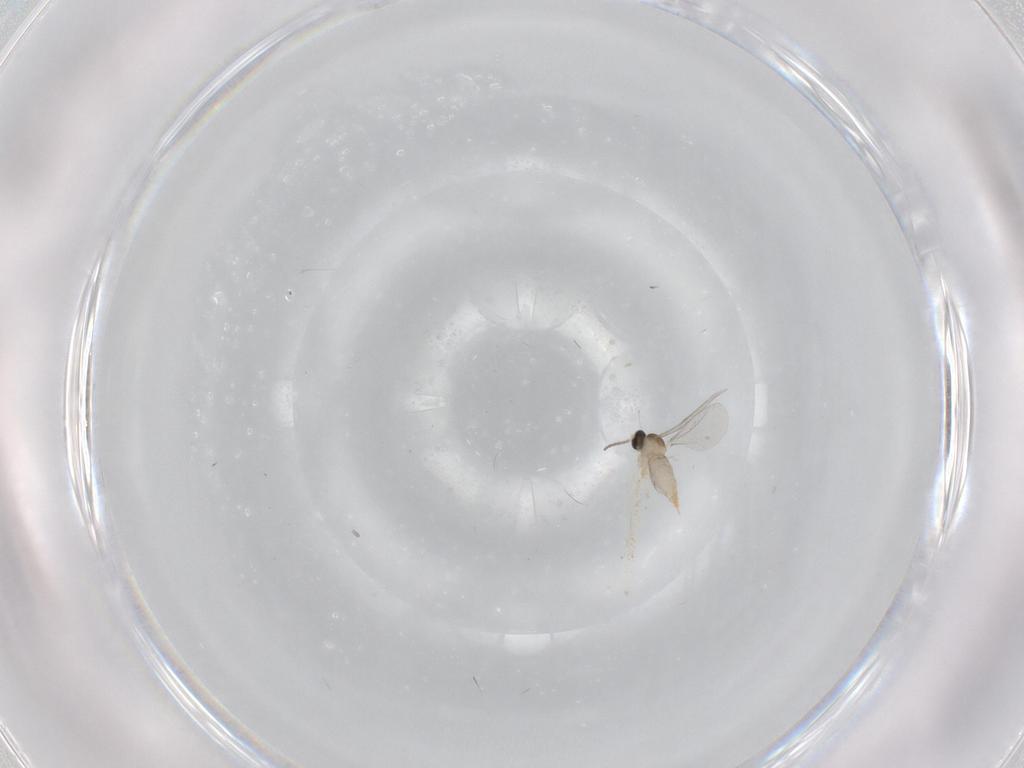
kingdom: Animalia
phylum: Arthropoda
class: Insecta
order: Diptera
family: Cecidomyiidae
